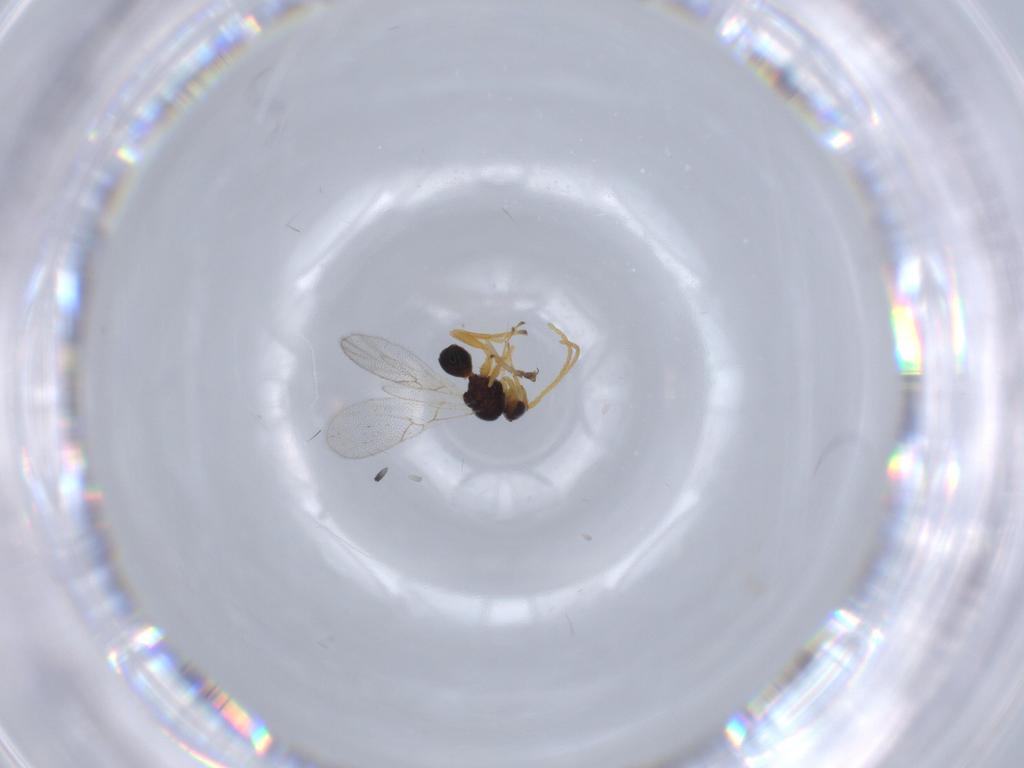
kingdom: Animalia
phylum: Arthropoda
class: Insecta
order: Hymenoptera
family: Figitidae
